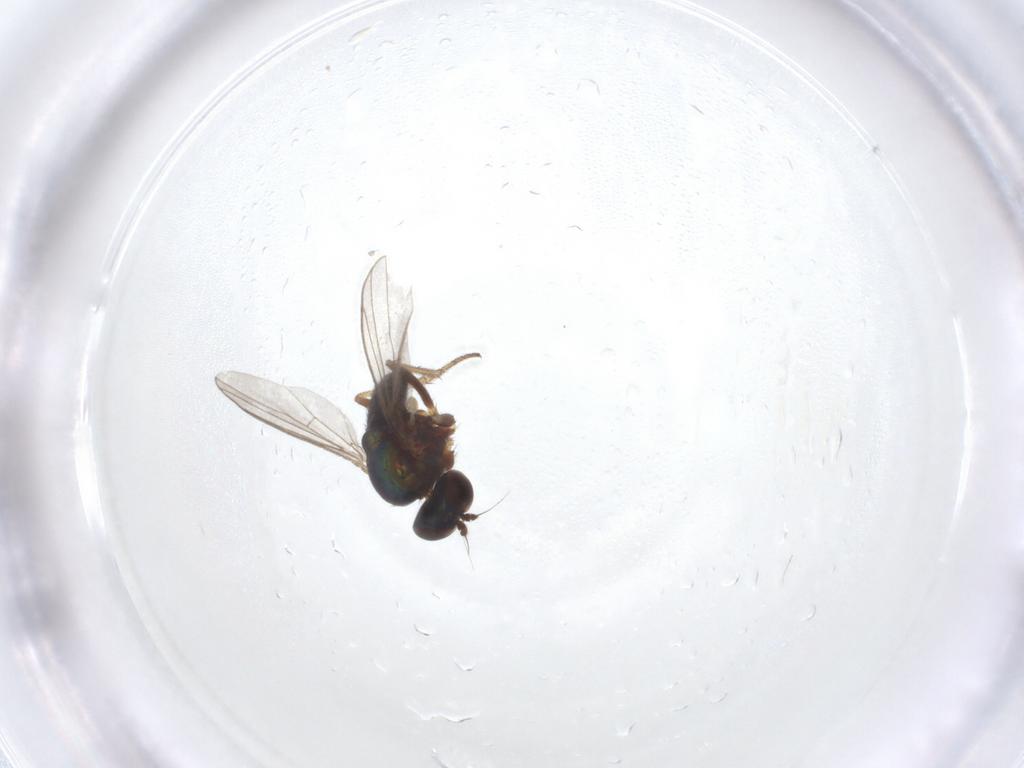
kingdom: Animalia
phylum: Arthropoda
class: Insecta
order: Diptera
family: Dolichopodidae
